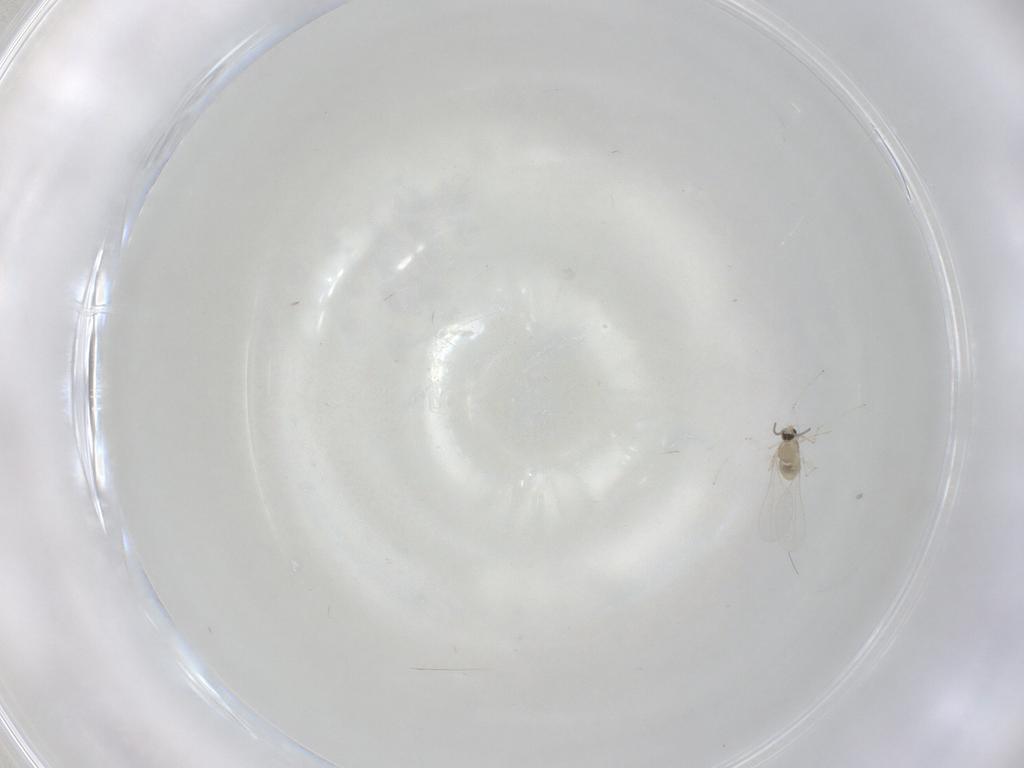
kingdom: Animalia
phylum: Arthropoda
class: Insecta
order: Diptera
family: Cecidomyiidae
